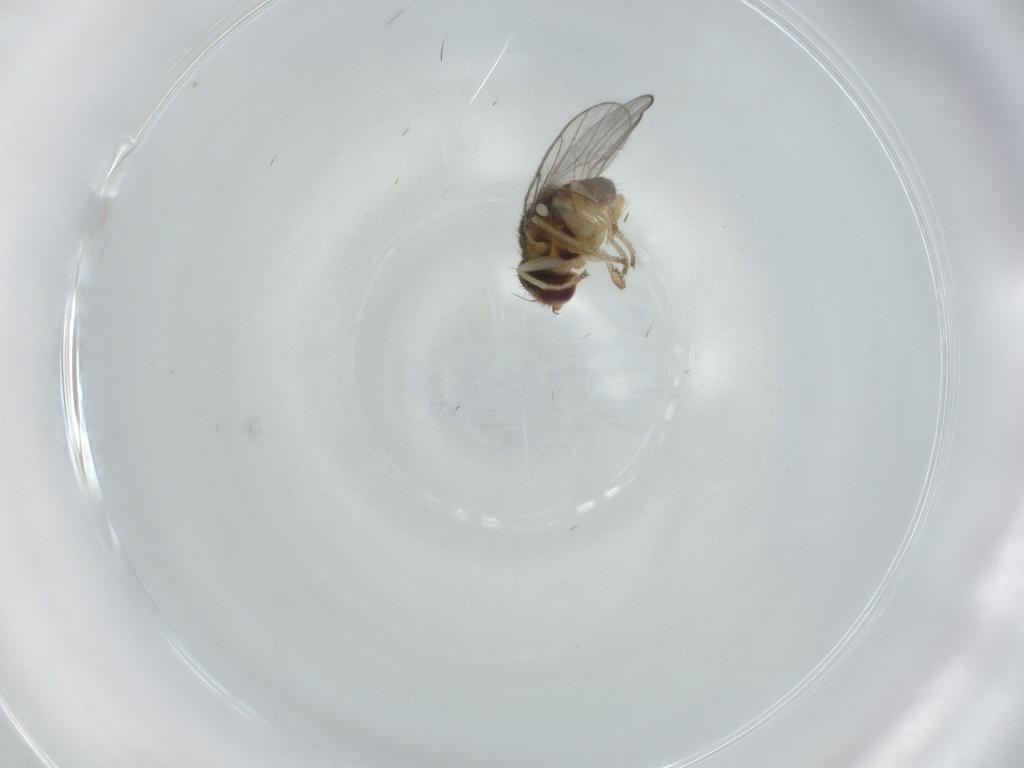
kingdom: Animalia
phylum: Arthropoda
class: Insecta
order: Diptera
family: Chloropidae
